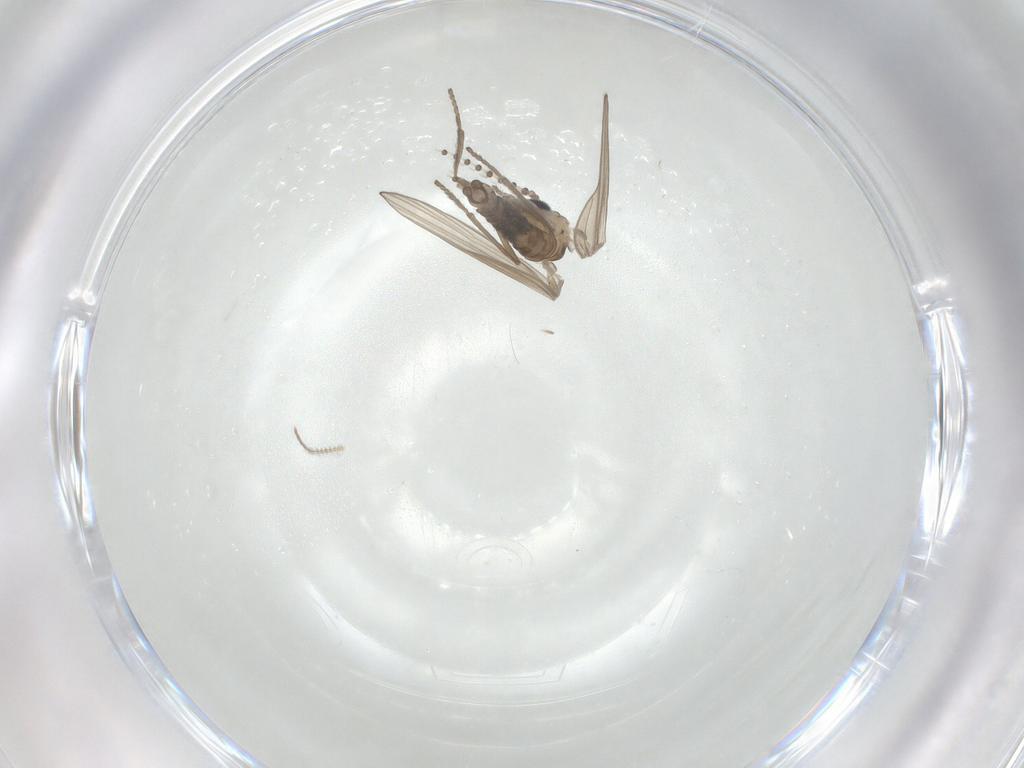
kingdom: Animalia
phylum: Arthropoda
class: Insecta
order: Diptera
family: Psychodidae
